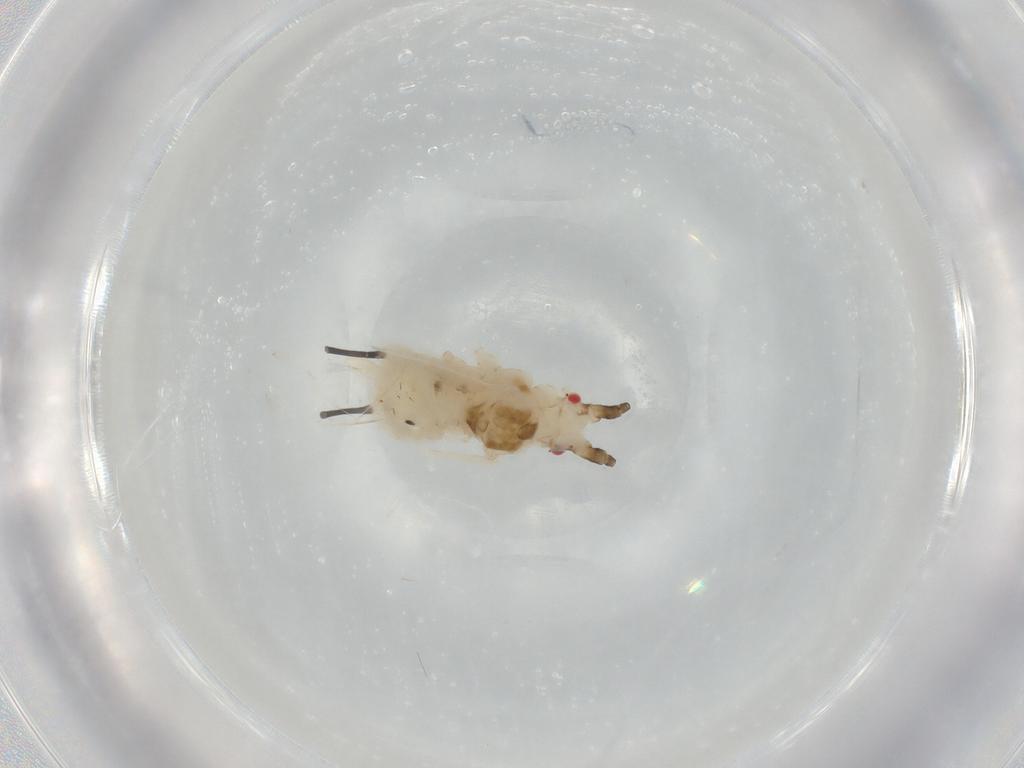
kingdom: Animalia
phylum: Arthropoda
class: Insecta
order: Hemiptera
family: Aphididae
